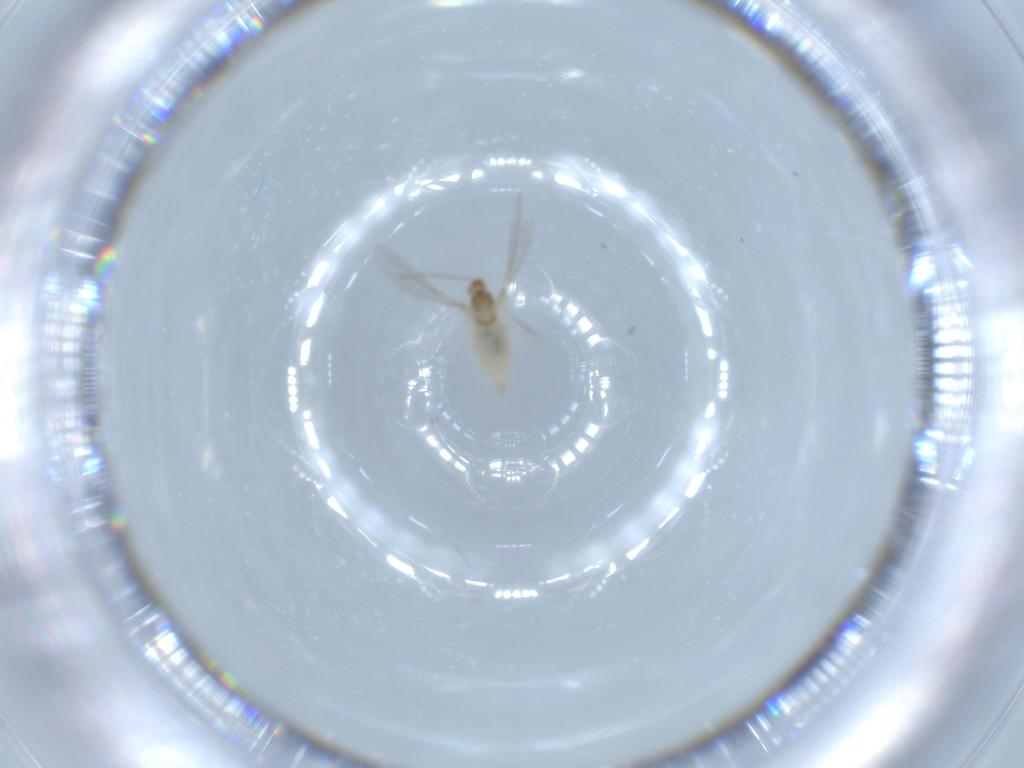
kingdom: Animalia
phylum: Arthropoda
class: Insecta
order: Diptera
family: Cecidomyiidae
